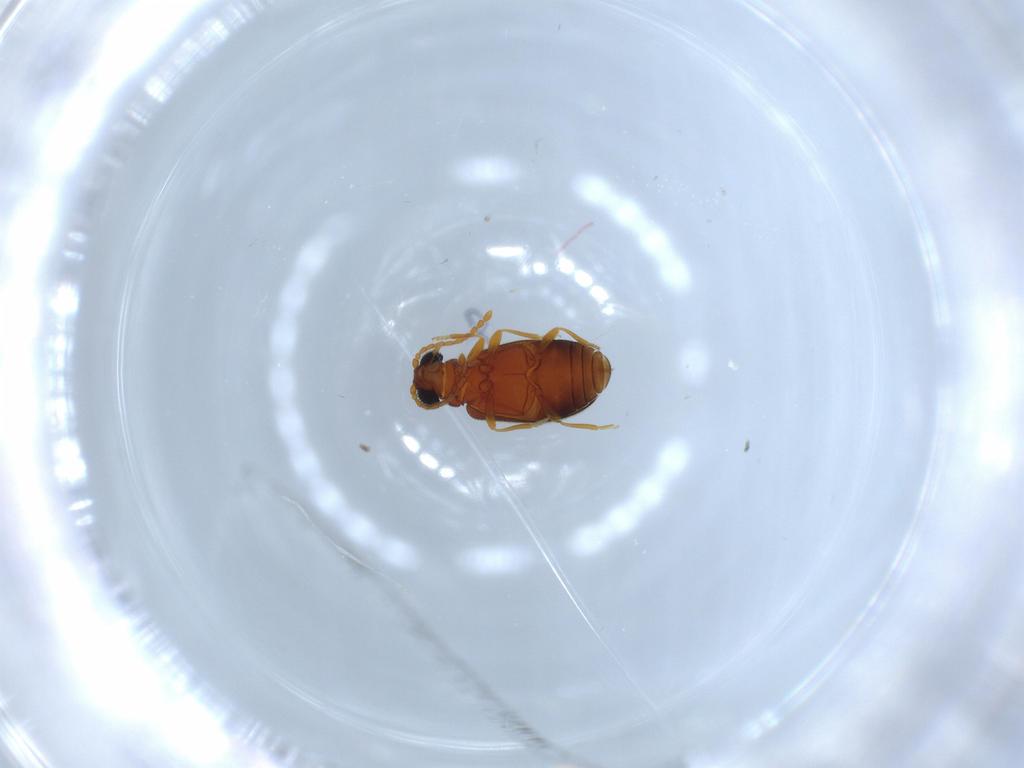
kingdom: Animalia
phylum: Arthropoda
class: Insecta
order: Coleoptera
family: Aderidae
